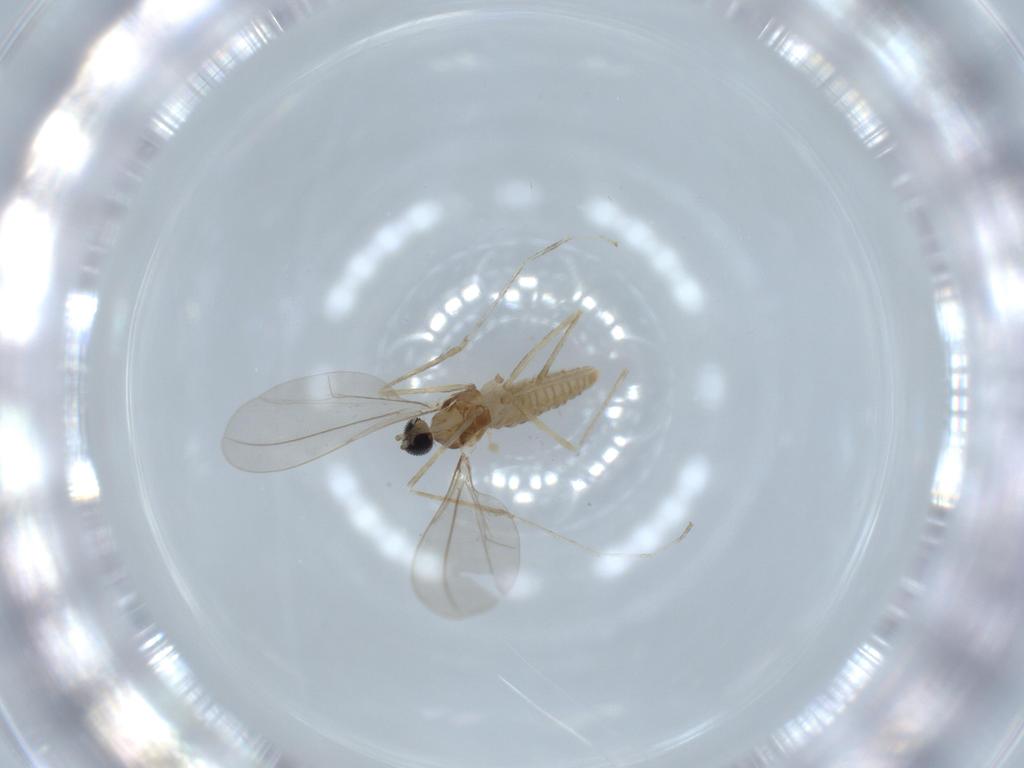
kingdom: Animalia
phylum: Arthropoda
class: Insecta
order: Diptera
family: Cecidomyiidae
